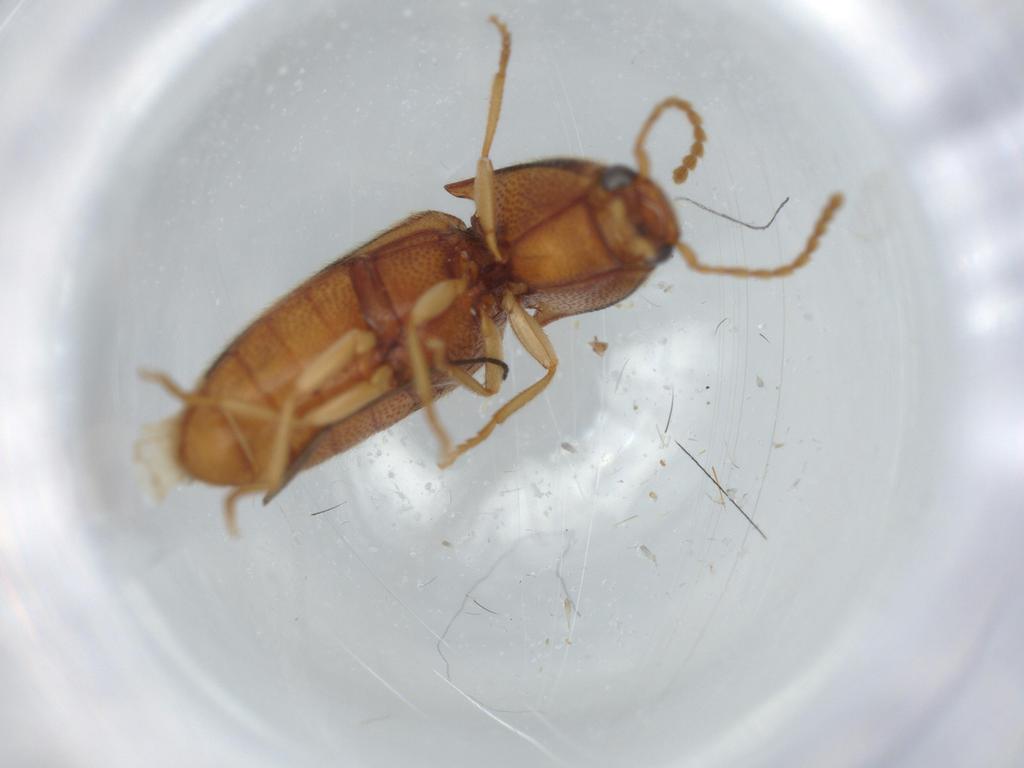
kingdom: Animalia
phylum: Arthropoda
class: Insecta
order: Coleoptera
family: Elateridae
